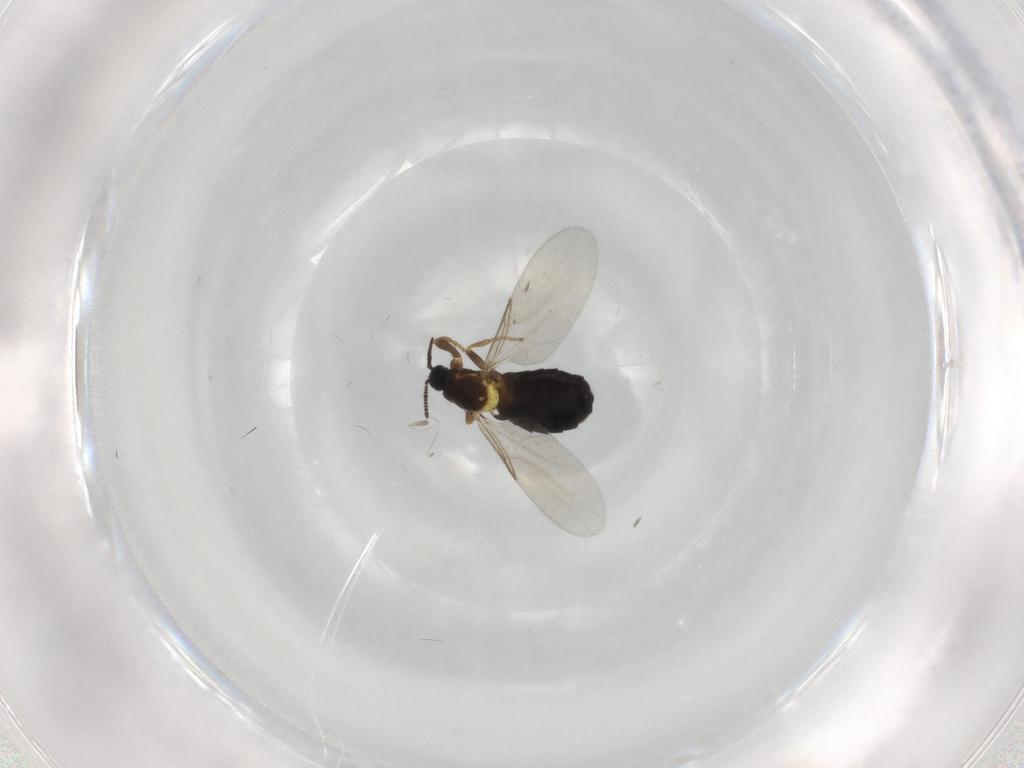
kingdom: Animalia
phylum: Arthropoda
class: Insecta
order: Diptera
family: Scatopsidae
